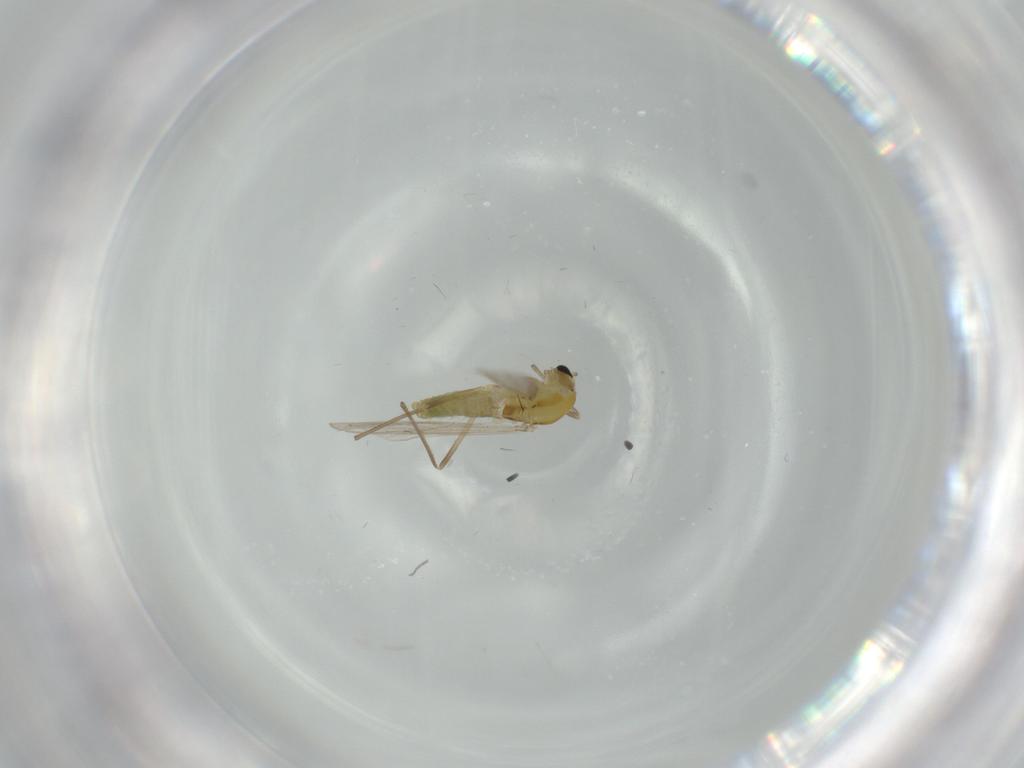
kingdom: Animalia
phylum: Arthropoda
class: Insecta
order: Diptera
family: Chironomidae
